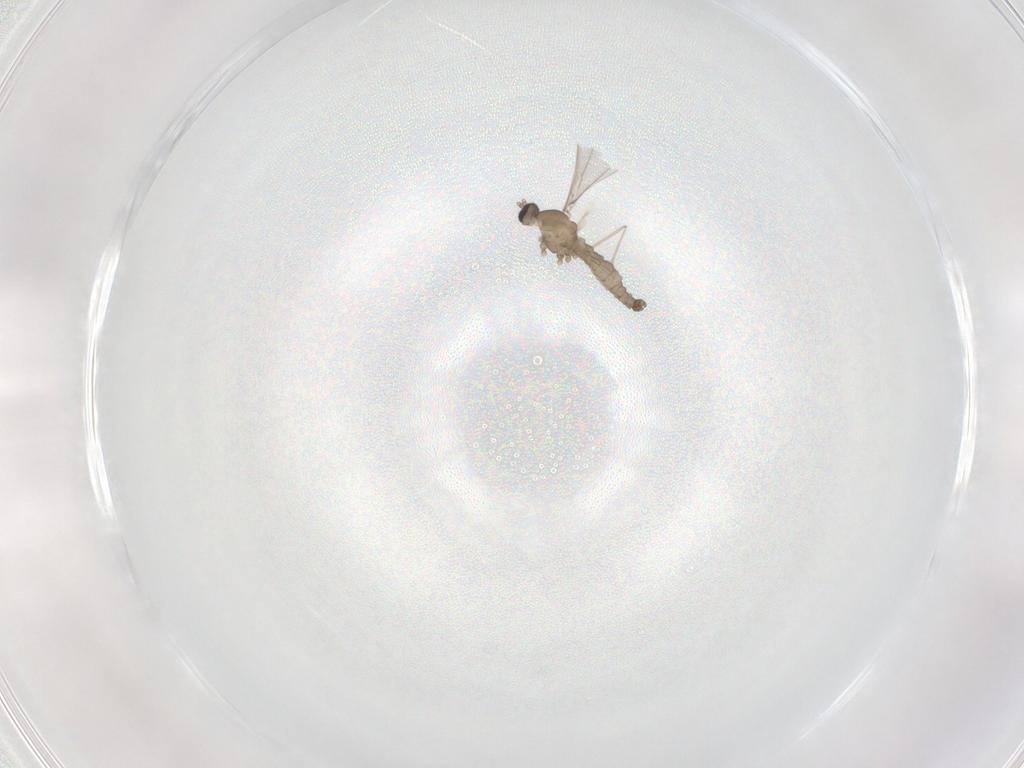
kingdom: Animalia
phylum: Arthropoda
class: Insecta
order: Diptera
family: Cecidomyiidae
